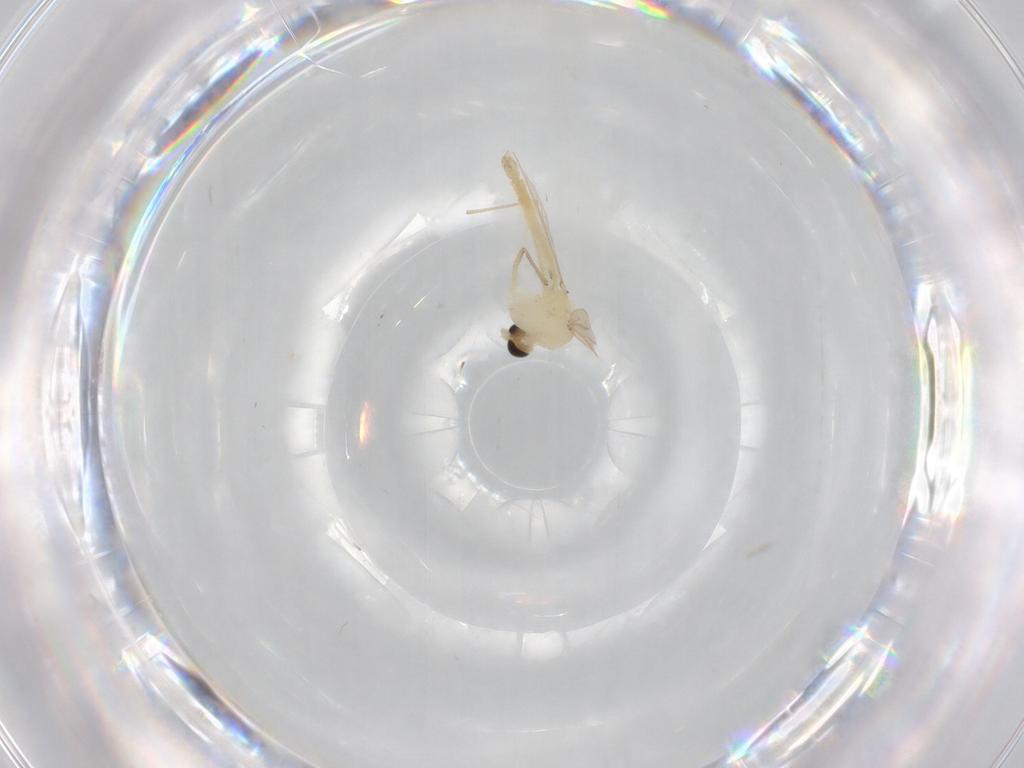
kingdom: Animalia
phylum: Arthropoda
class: Insecta
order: Diptera
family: Chironomidae
